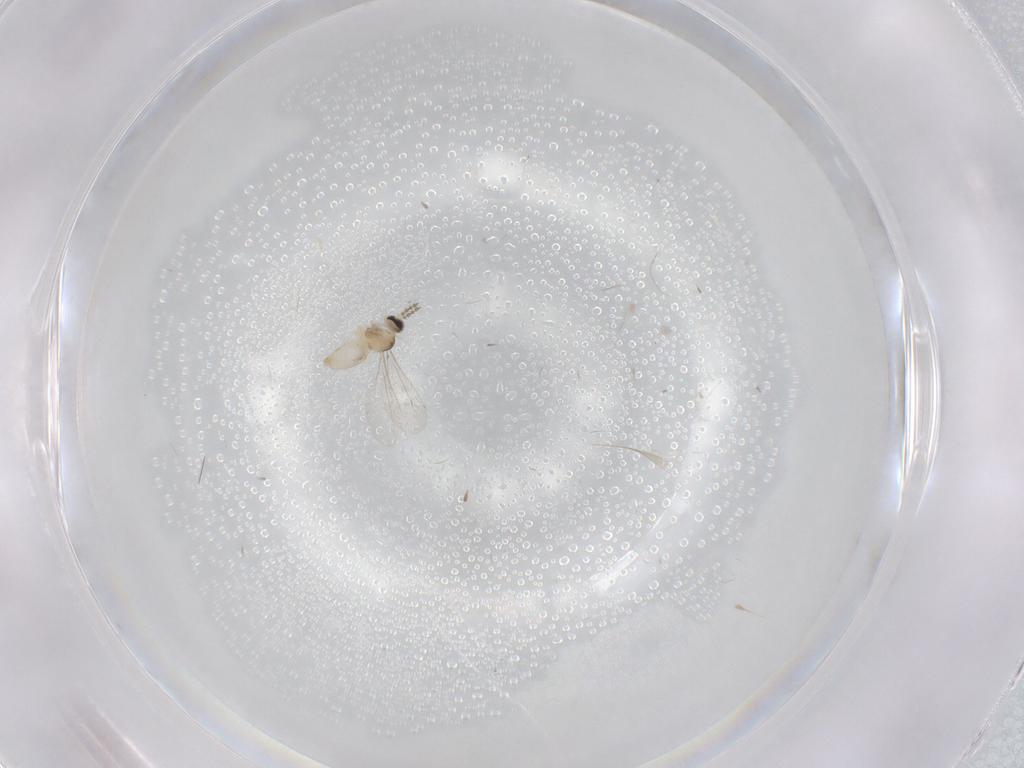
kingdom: Animalia
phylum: Arthropoda
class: Insecta
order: Diptera
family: Cecidomyiidae
